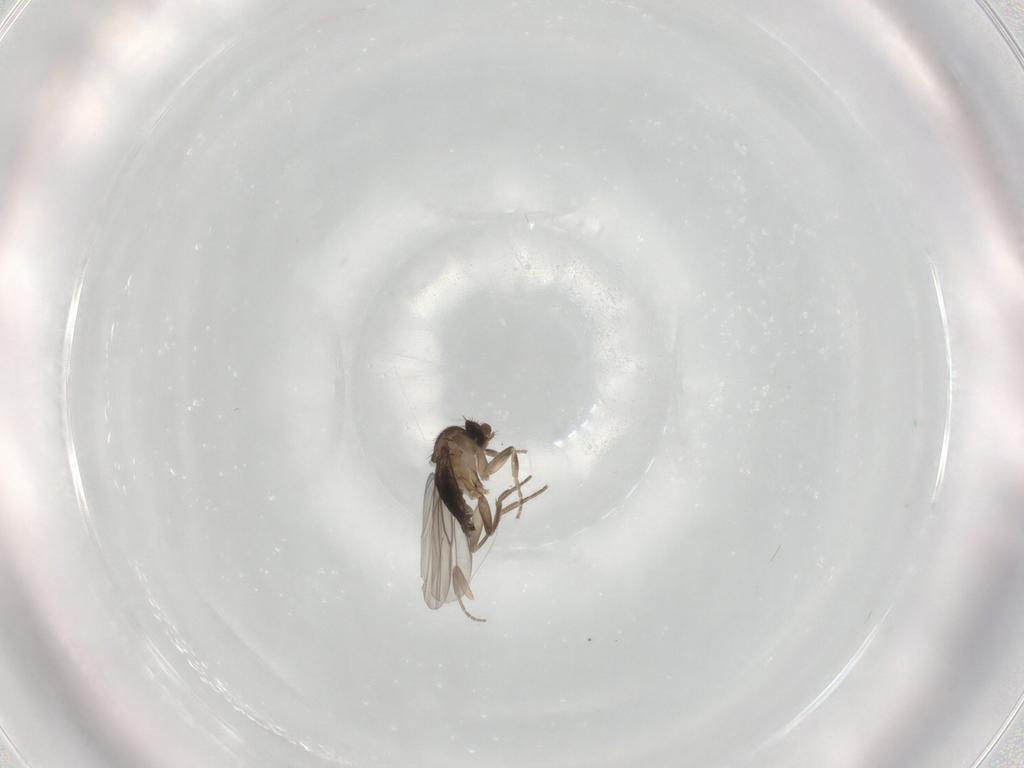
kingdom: Animalia
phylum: Arthropoda
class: Insecta
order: Diptera
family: Phoridae
